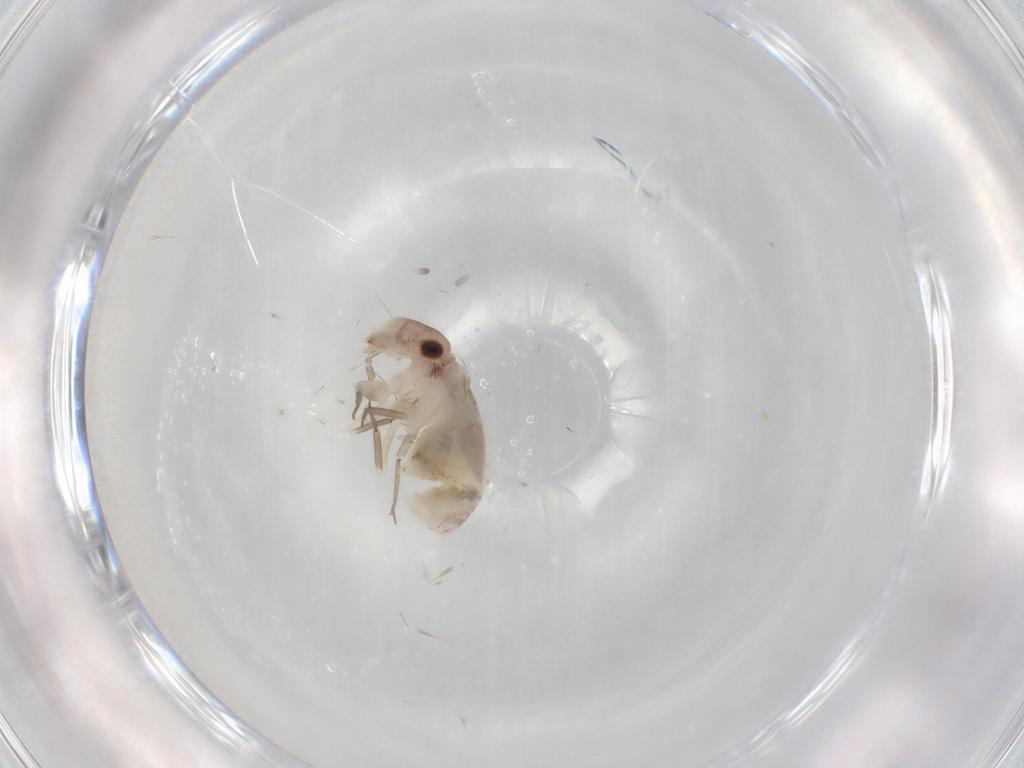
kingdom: Animalia
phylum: Arthropoda
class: Insecta
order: Psocodea
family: Lepidopsocidae
